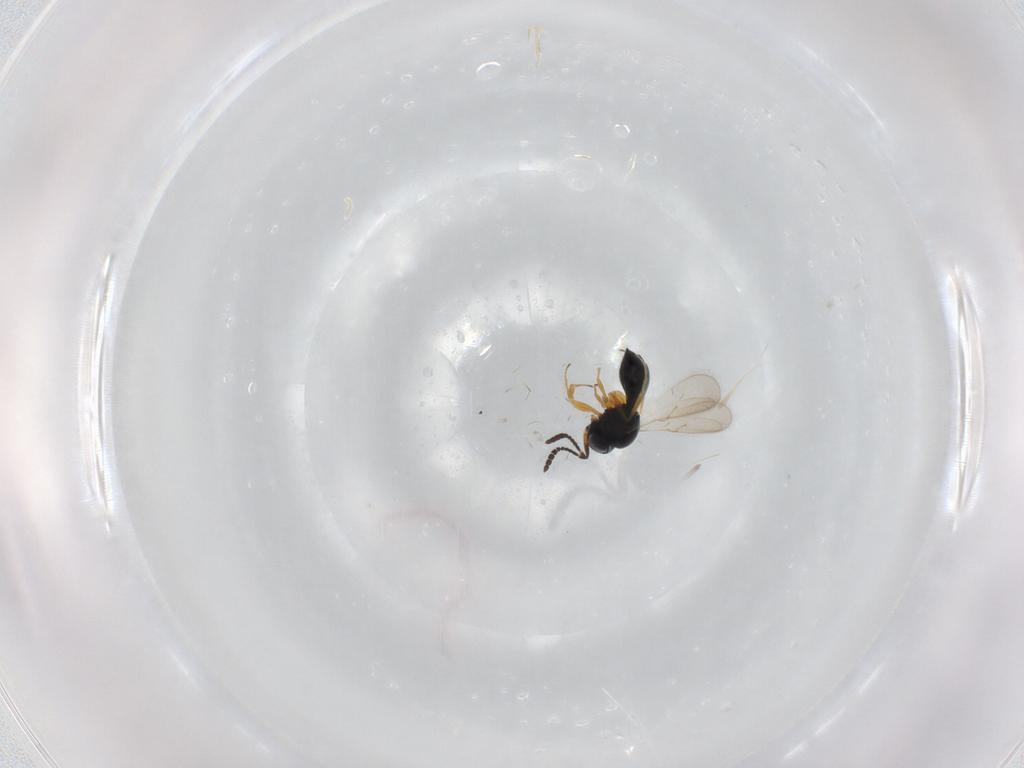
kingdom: Animalia
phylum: Arthropoda
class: Insecta
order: Hymenoptera
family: Scelionidae
